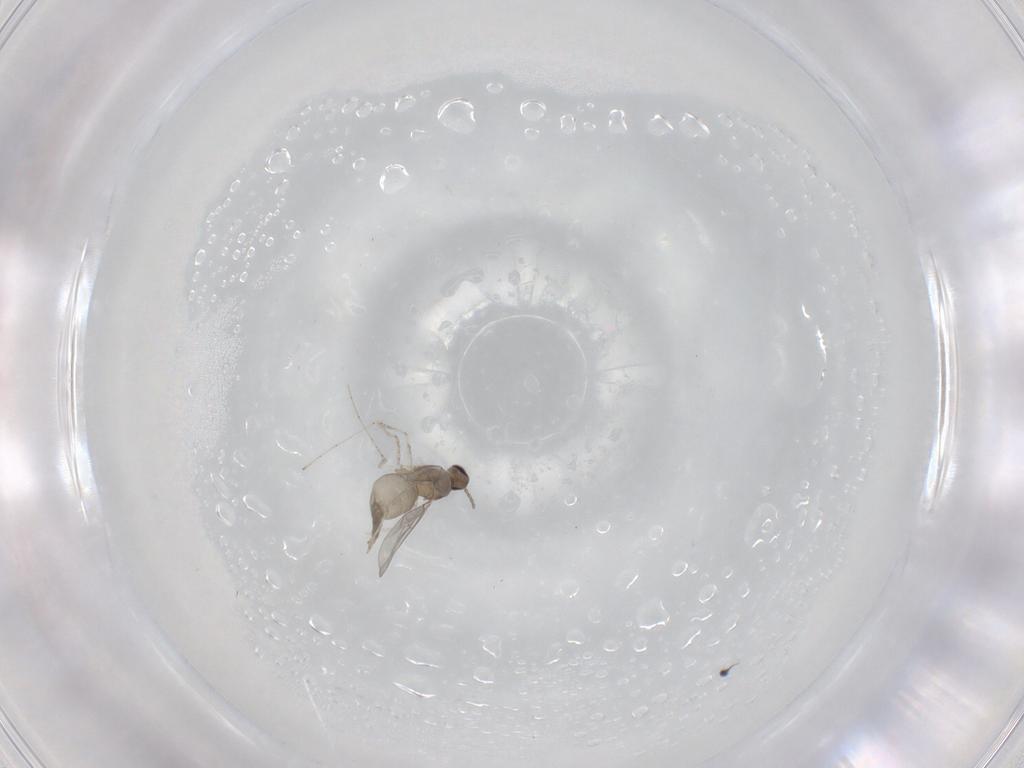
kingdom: Animalia
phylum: Arthropoda
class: Insecta
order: Diptera
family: Cecidomyiidae
